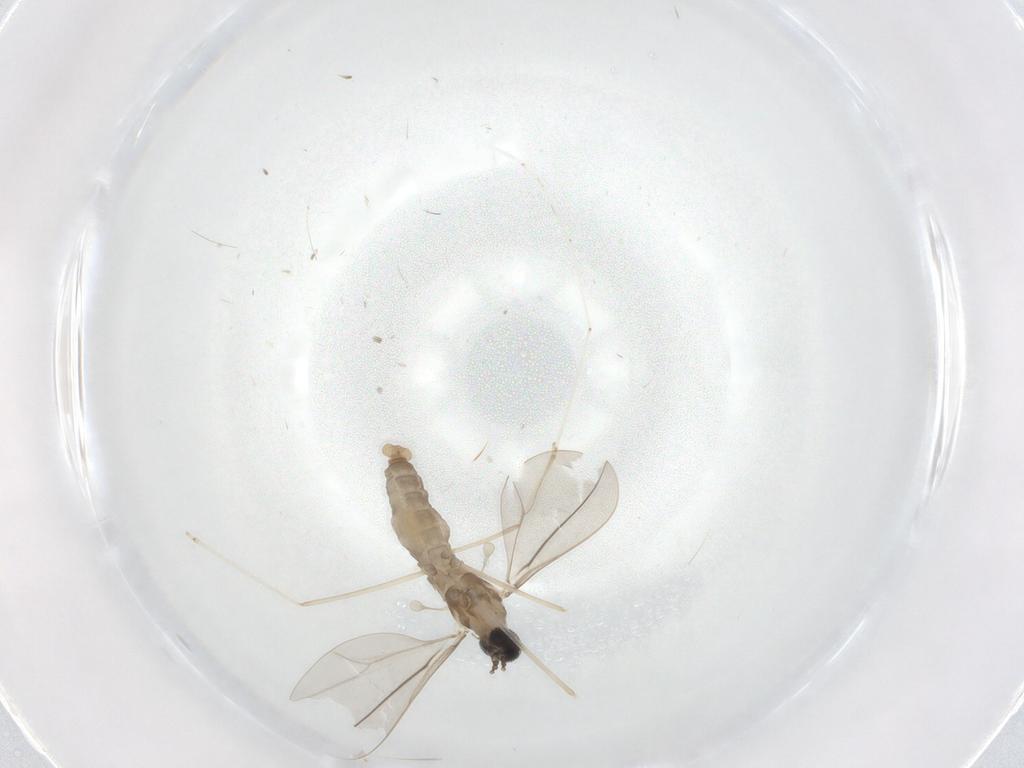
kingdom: Animalia
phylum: Arthropoda
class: Insecta
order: Diptera
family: Cecidomyiidae
